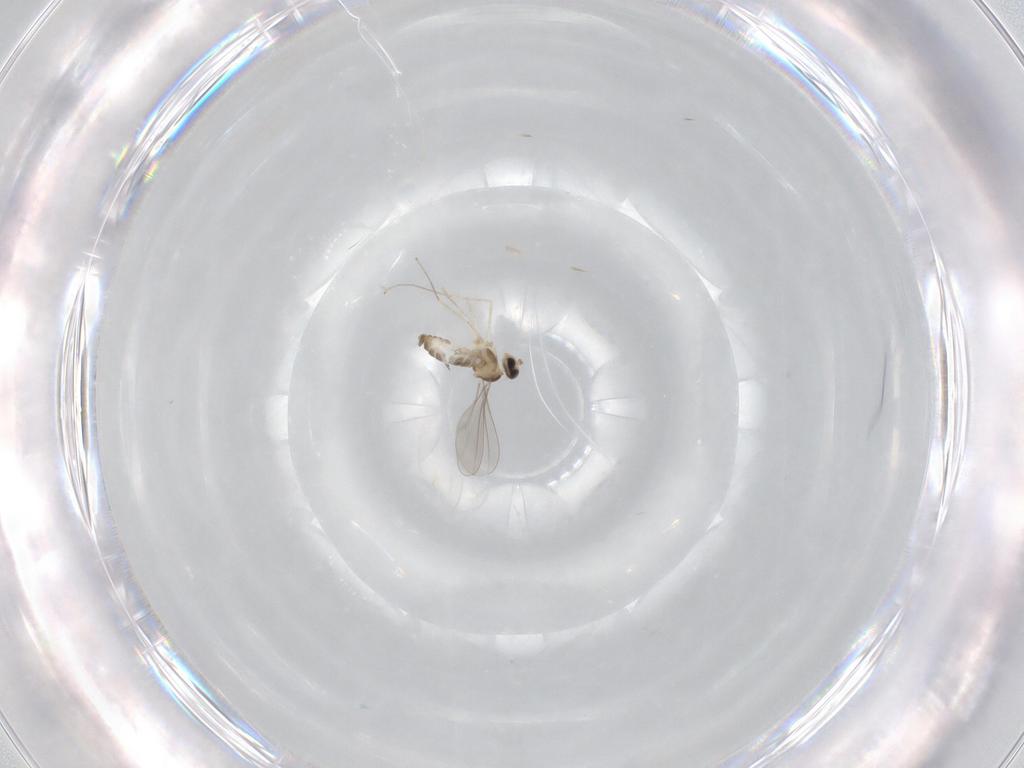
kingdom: Animalia
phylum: Arthropoda
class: Insecta
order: Diptera
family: Cecidomyiidae
